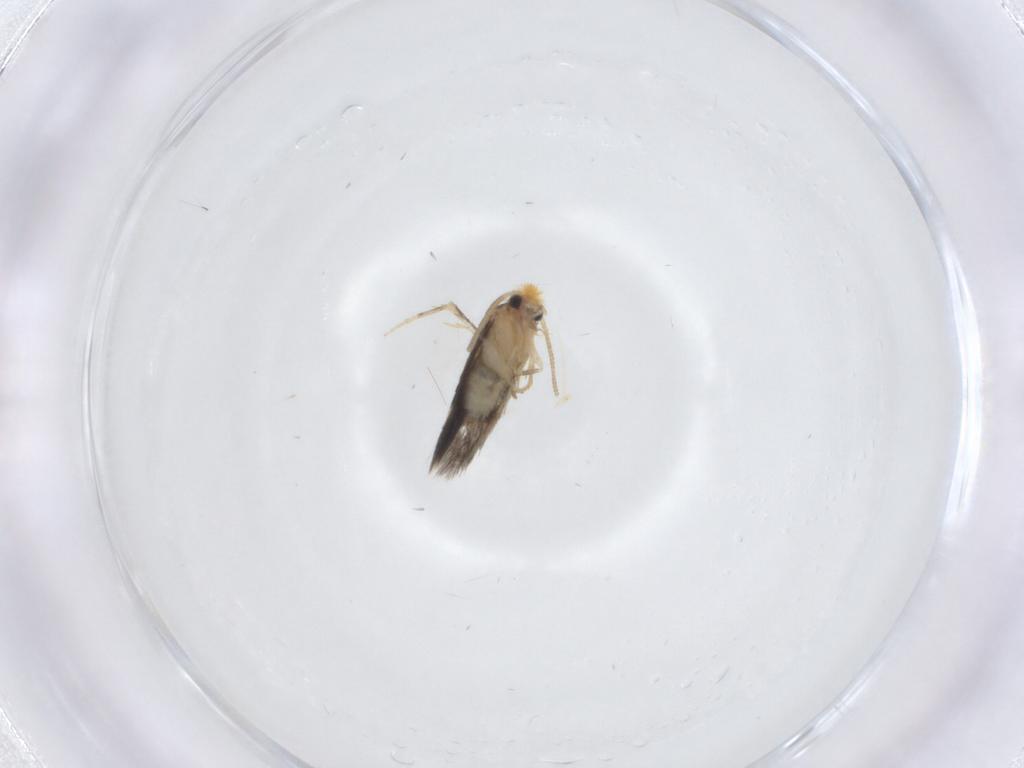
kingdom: Animalia
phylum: Arthropoda
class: Insecta
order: Lepidoptera
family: Nepticulidae
